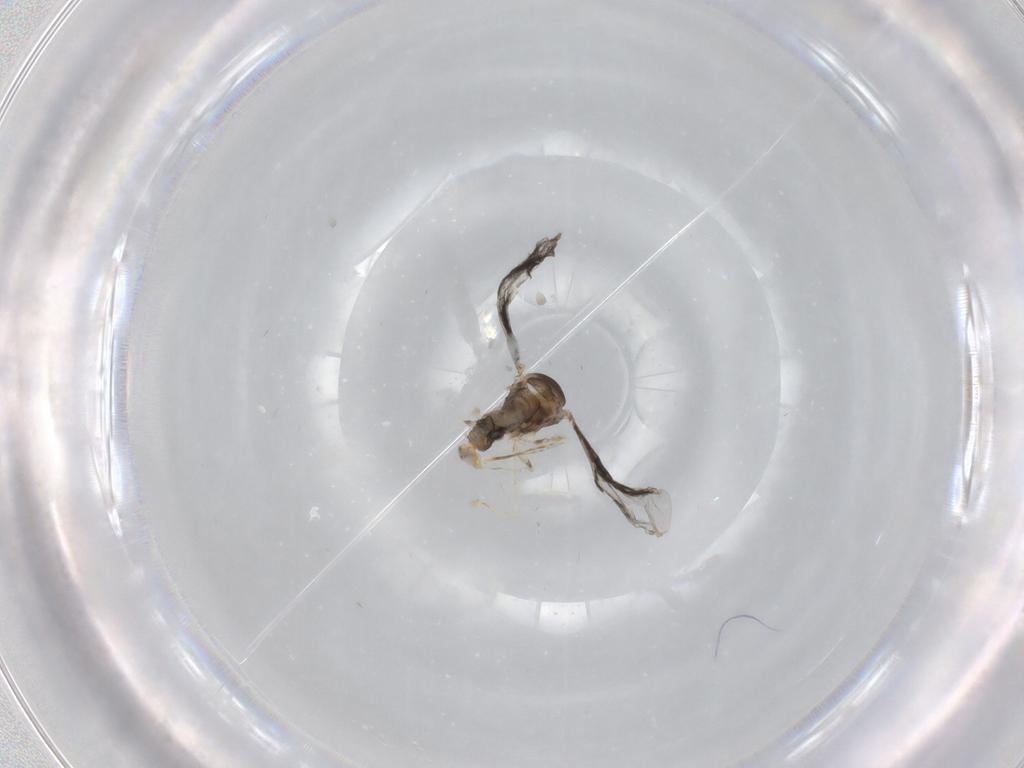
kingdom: Animalia
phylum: Arthropoda
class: Insecta
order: Diptera
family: Cecidomyiidae
